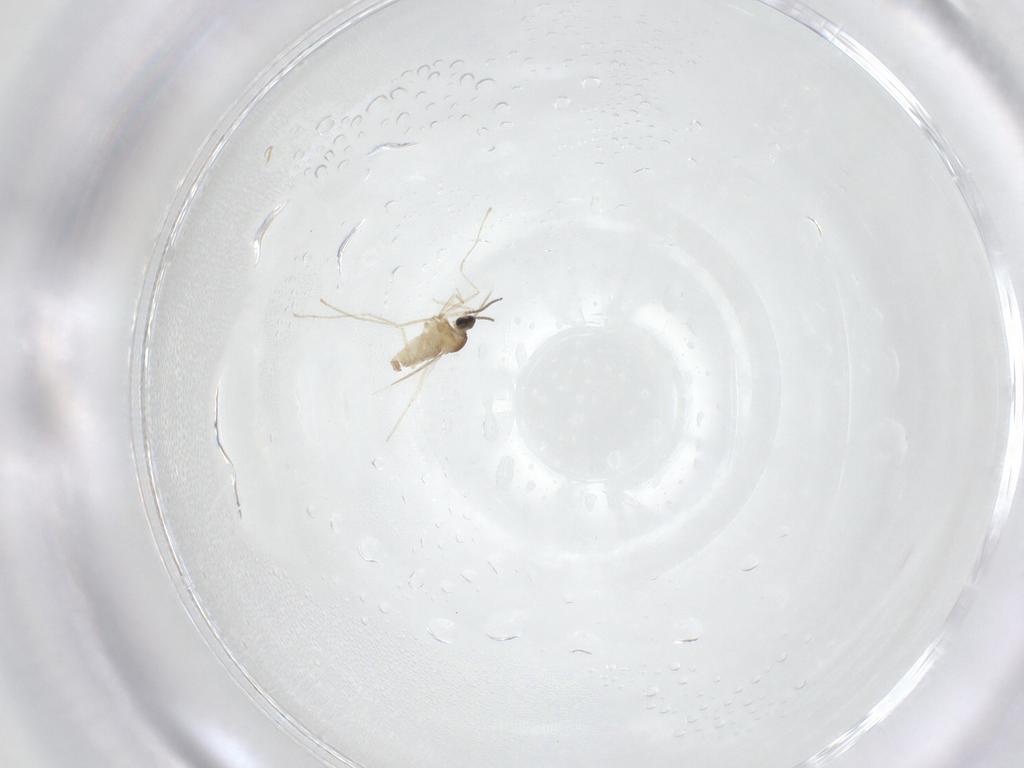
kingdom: Animalia
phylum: Arthropoda
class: Insecta
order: Diptera
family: Cecidomyiidae
